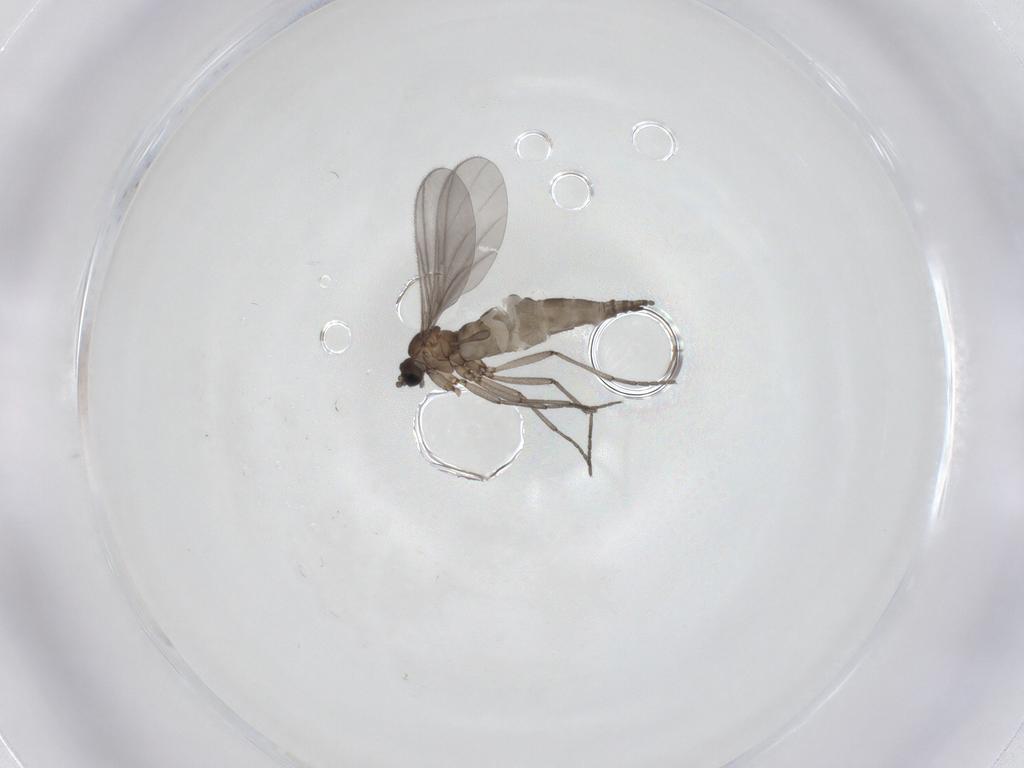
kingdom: Animalia
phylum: Arthropoda
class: Insecta
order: Diptera
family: Sciaridae
